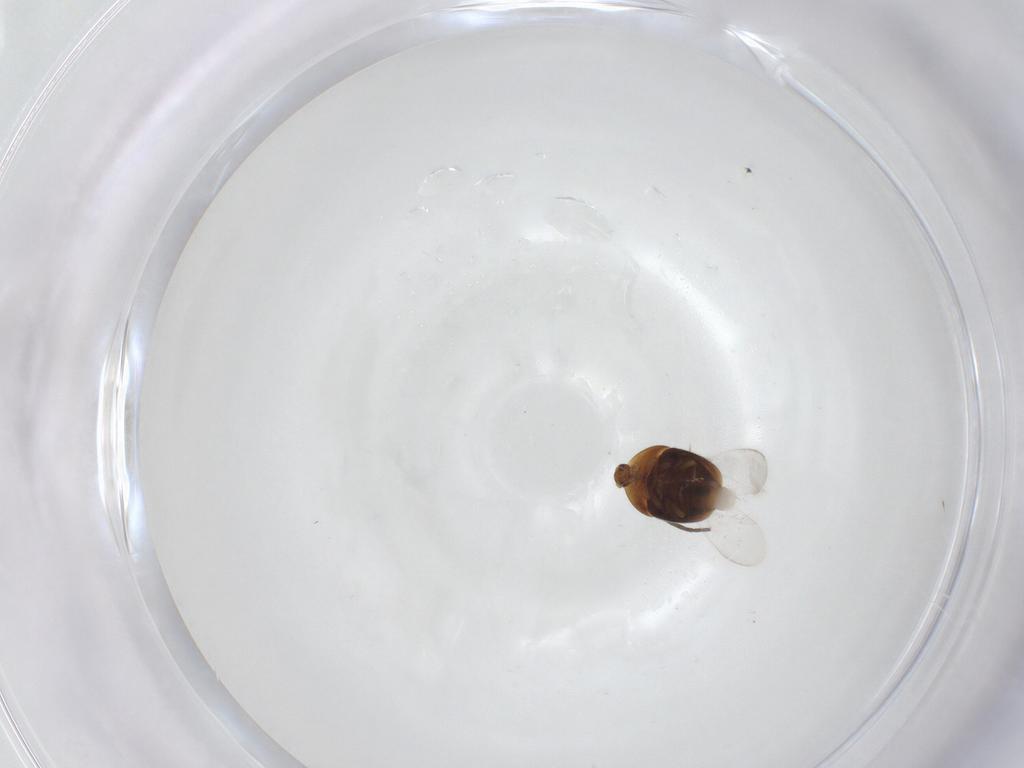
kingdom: Animalia
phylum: Arthropoda
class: Insecta
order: Coleoptera
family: Corylophidae
